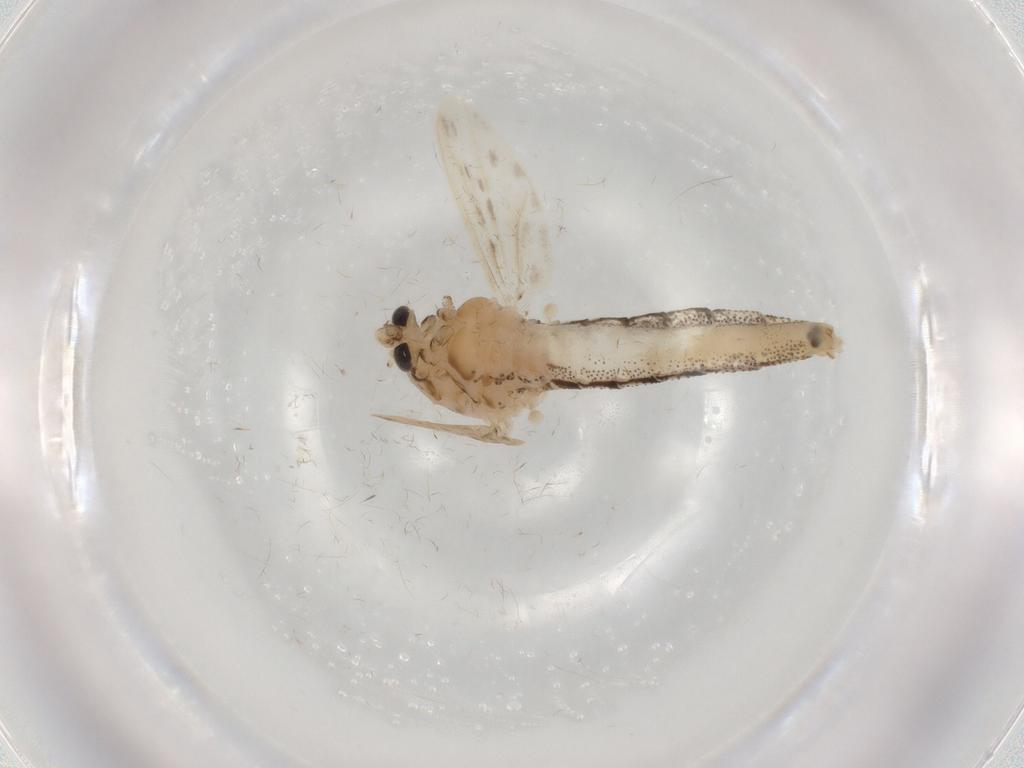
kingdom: Animalia
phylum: Arthropoda
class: Insecta
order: Diptera
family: Chaoboridae
